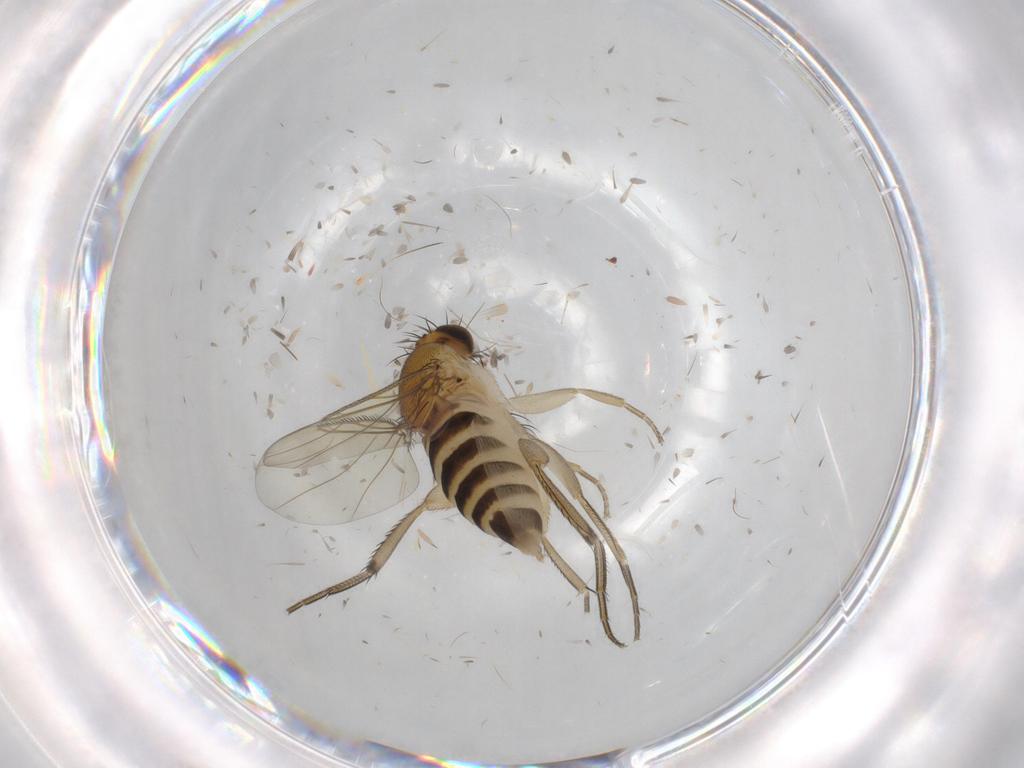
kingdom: Animalia
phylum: Arthropoda
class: Insecta
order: Diptera
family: Phoridae
